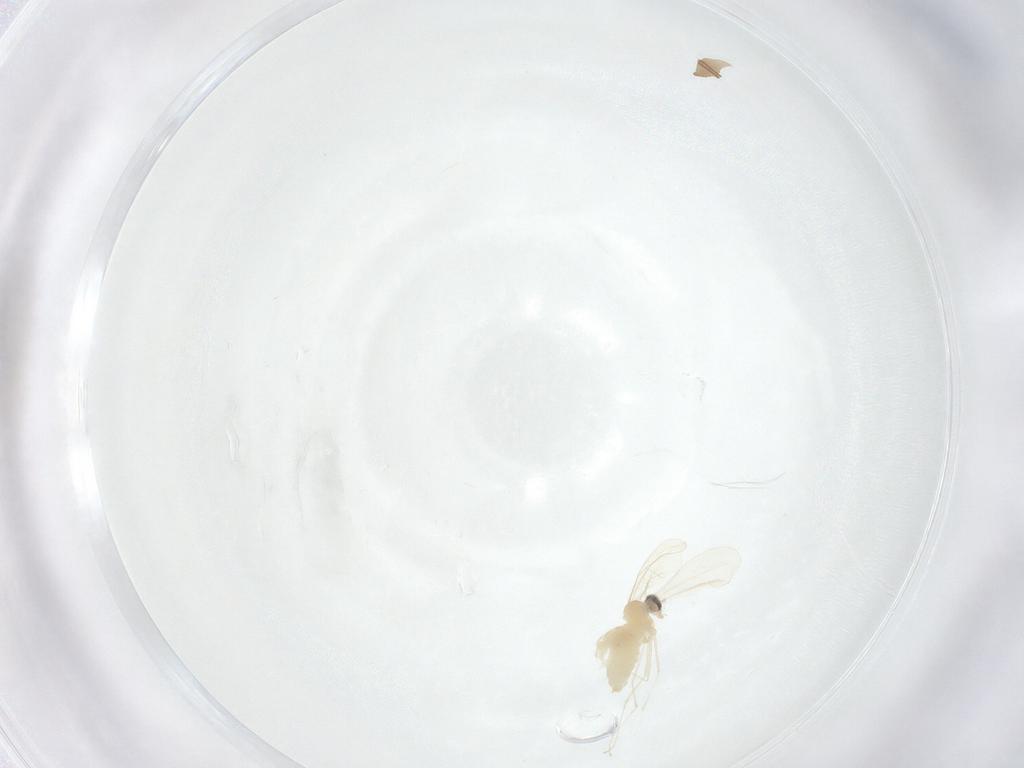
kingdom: Animalia
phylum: Arthropoda
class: Insecta
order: Diptera
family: Cecidomyiidae
